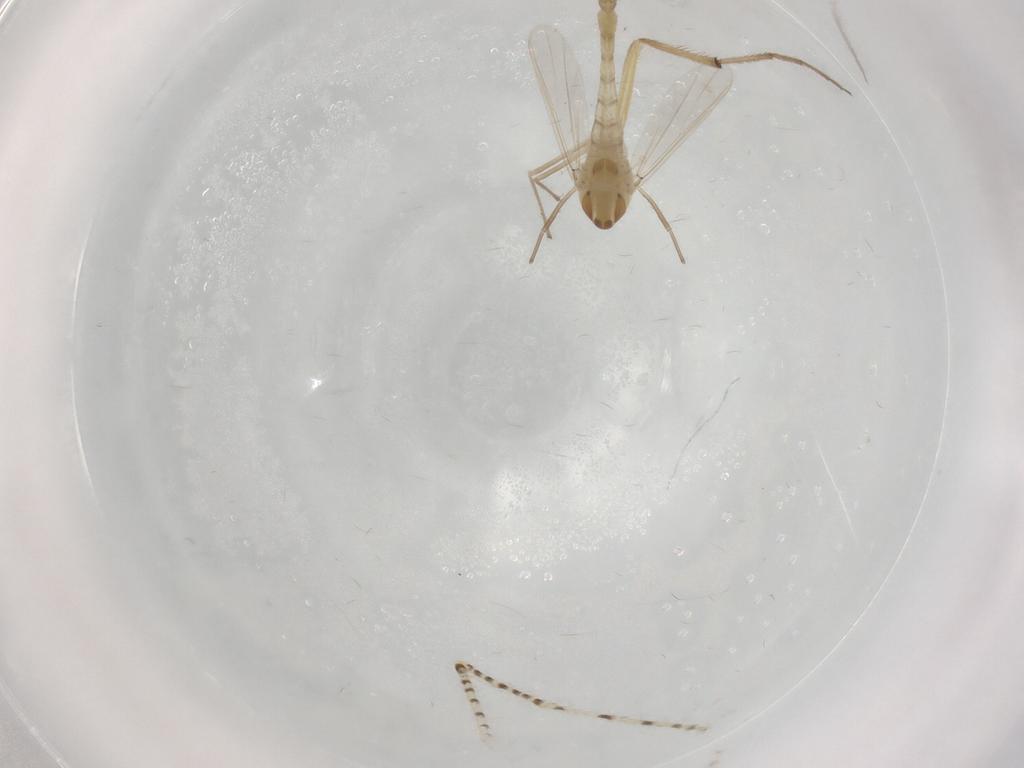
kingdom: Animalia
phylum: Arthropoda
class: Insecta
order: Diptera
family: Chironomidae
